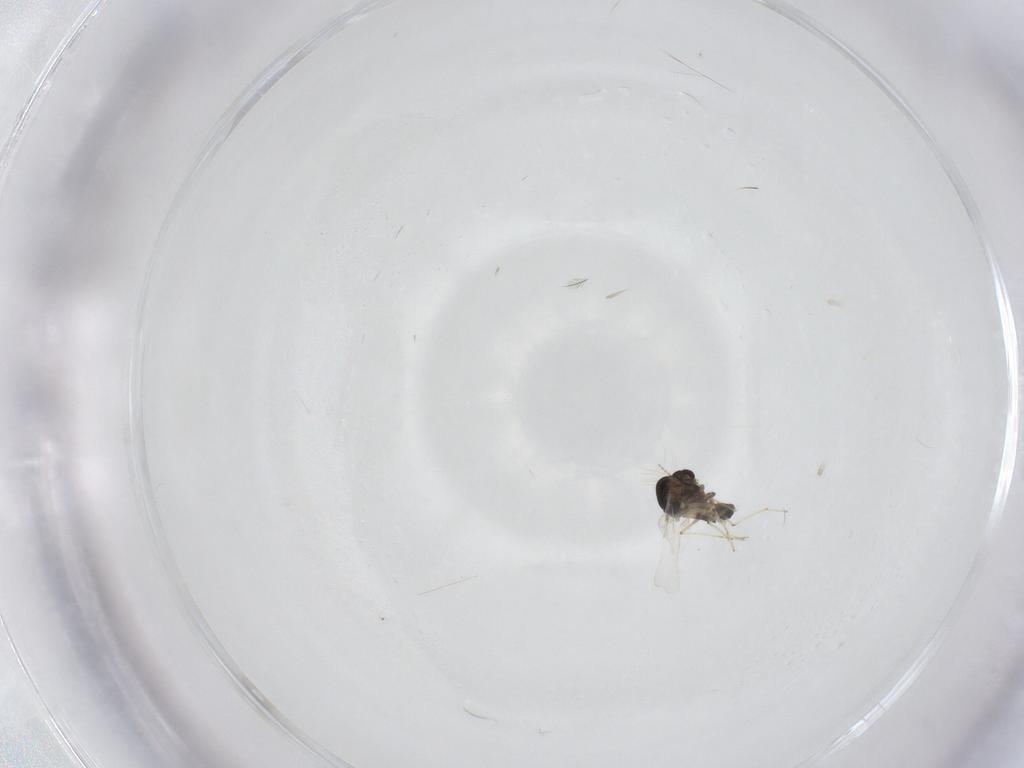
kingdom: Animalia
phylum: Arthropoda
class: Insecta
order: Diptera
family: Chironomidae
